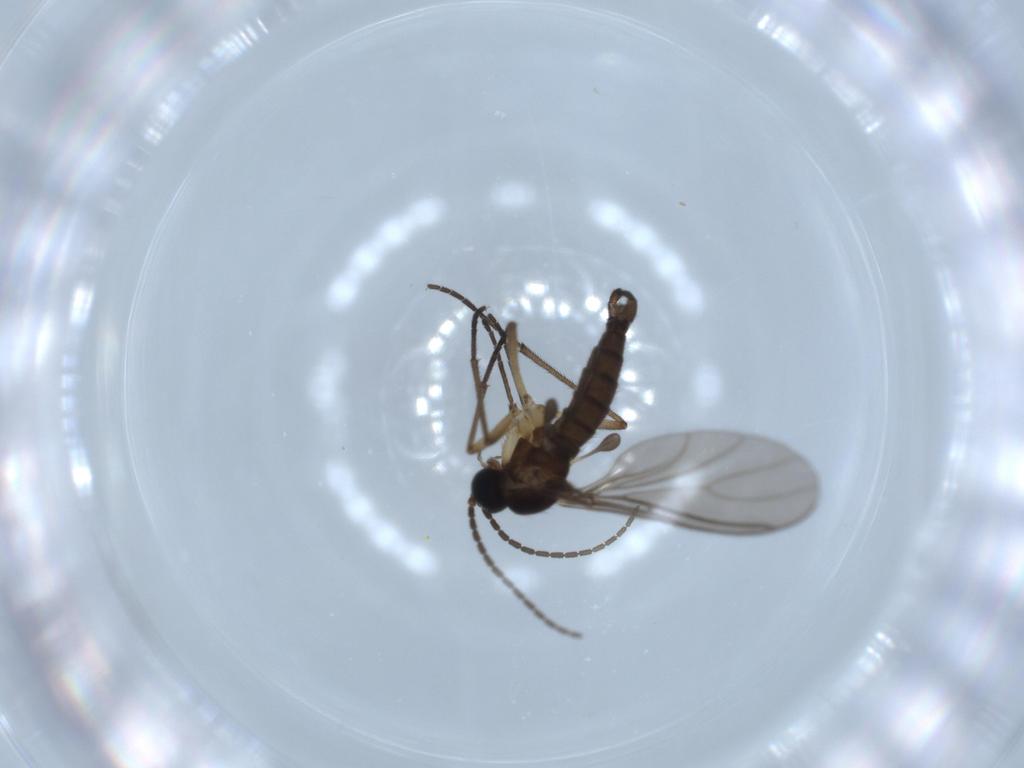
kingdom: Animalia
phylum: Arthropoda
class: Insecta
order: Diptera
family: Sciaridae
